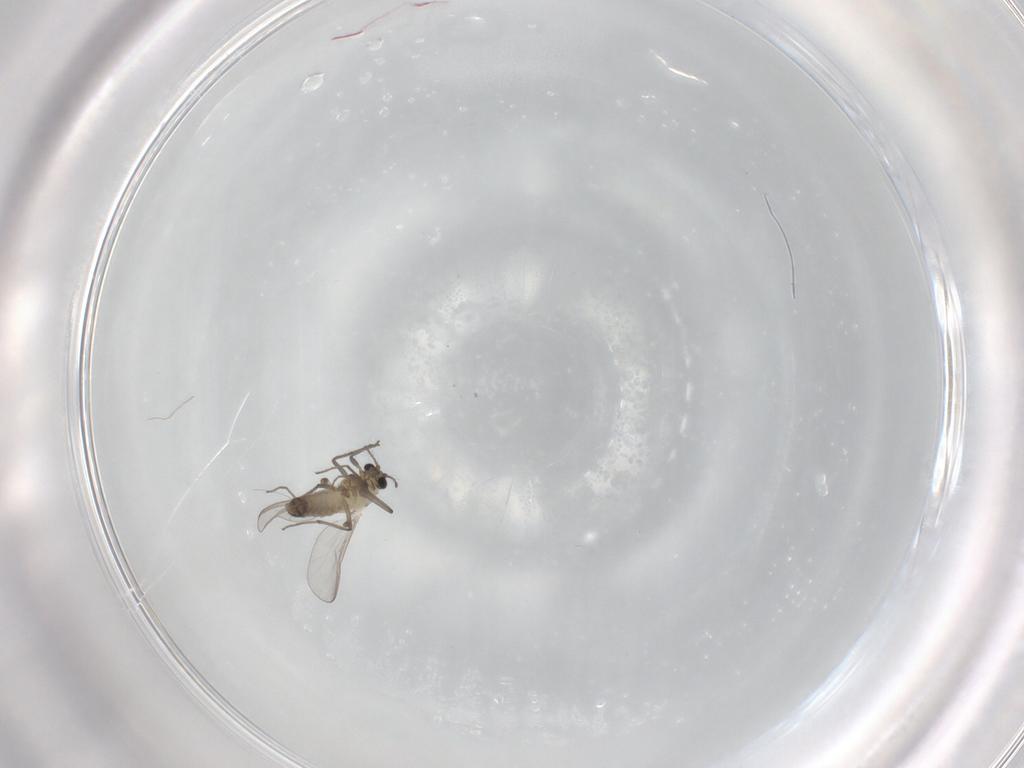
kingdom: Animalia
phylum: Arthropoda
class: Insecta
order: Diptera
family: Chironomidae
